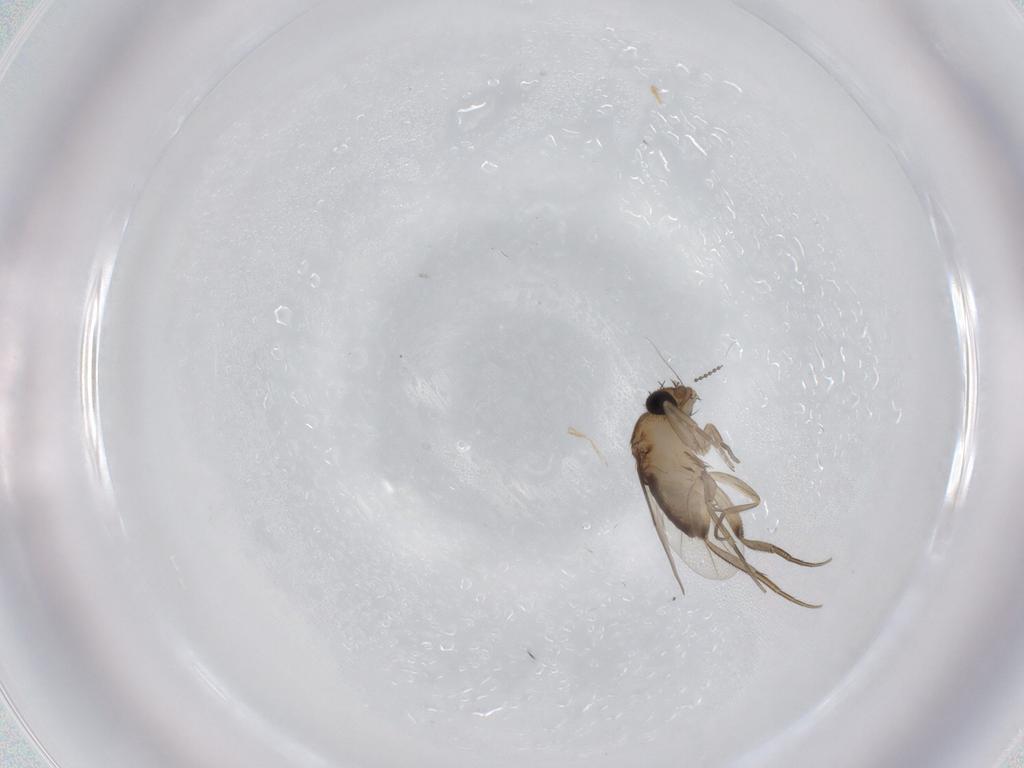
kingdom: Animalia
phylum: Arthropoda
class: Insecta
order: Diptera
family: Phoridae
